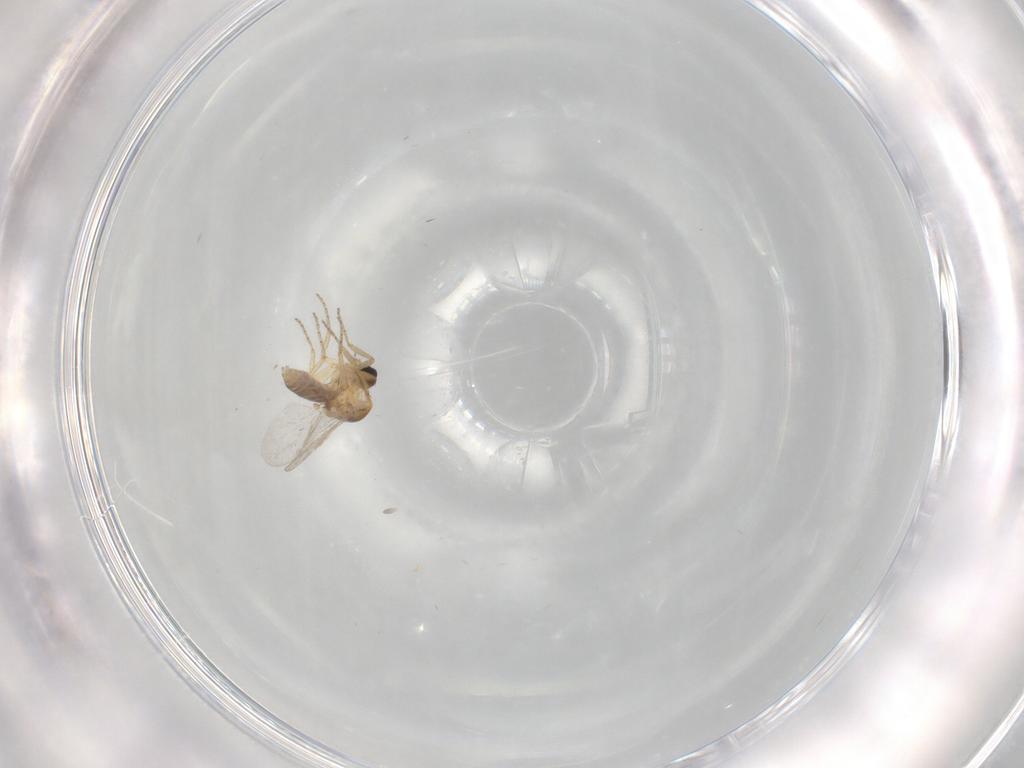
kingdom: Animalia
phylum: Arthropoda
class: Insecta
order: Diptera
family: Ceratopogonidae
